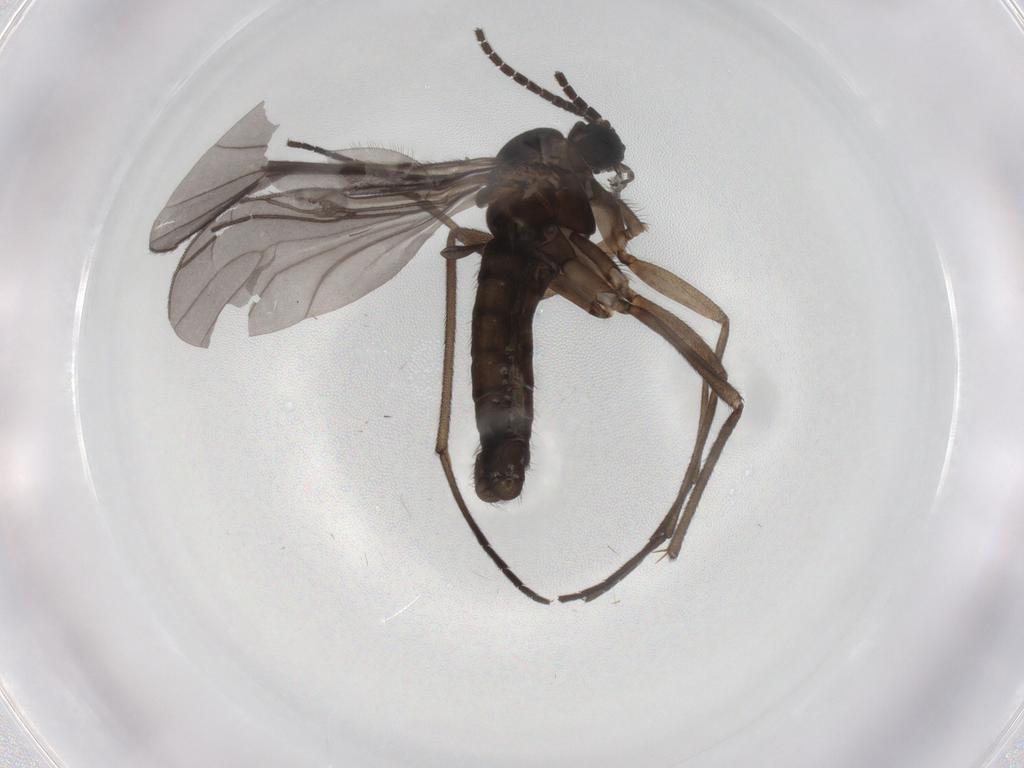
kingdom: Animalia
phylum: Arthropoda
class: Insecta
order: Diptera
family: Sciaridae
